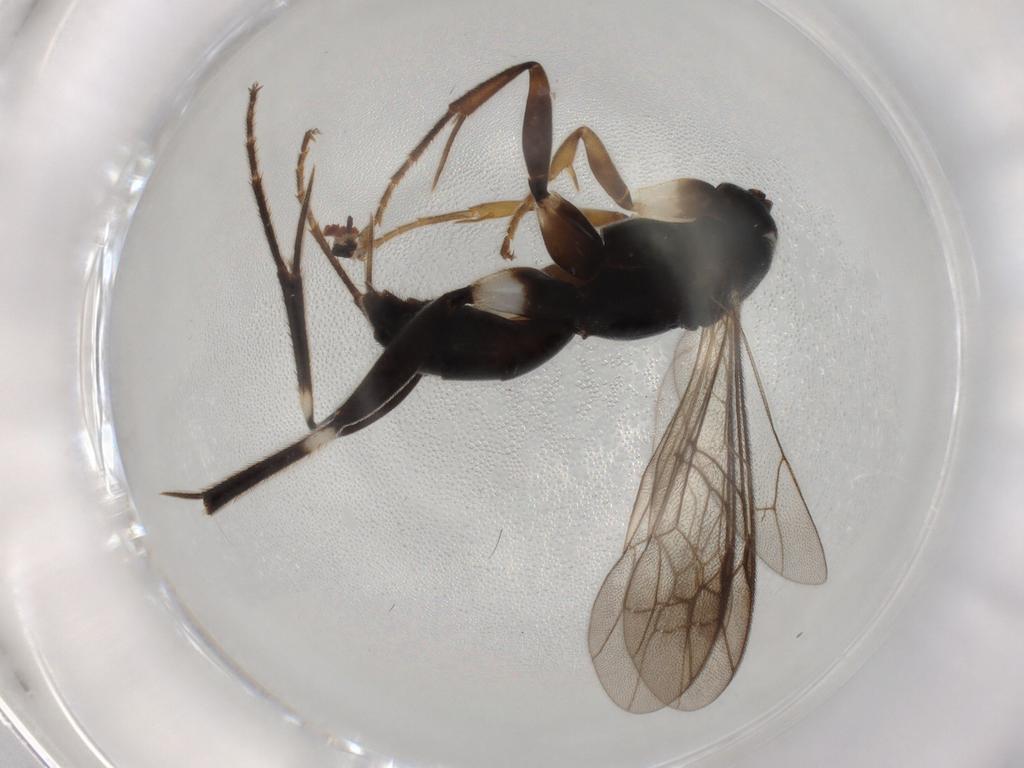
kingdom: Animalia
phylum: Arthropoda
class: Insecta
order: Hymenoptera
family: Pompilidae
